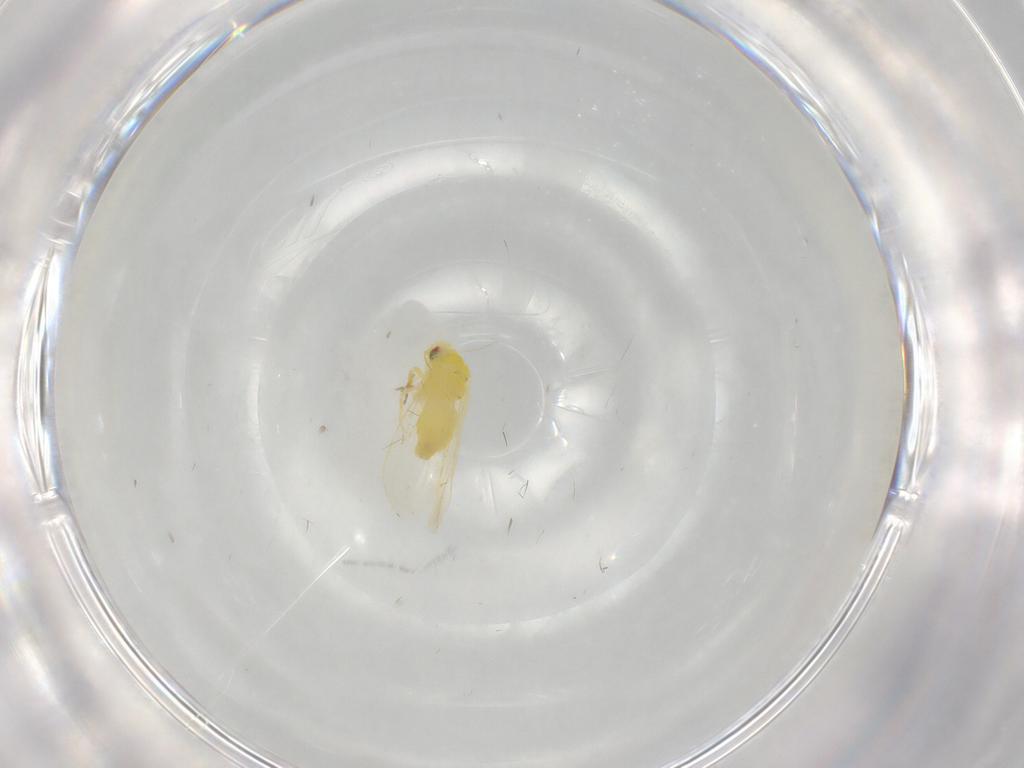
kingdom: Animalia
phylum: Arthropoda
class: Insecta
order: Hemiptera
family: Aleyrodidae
